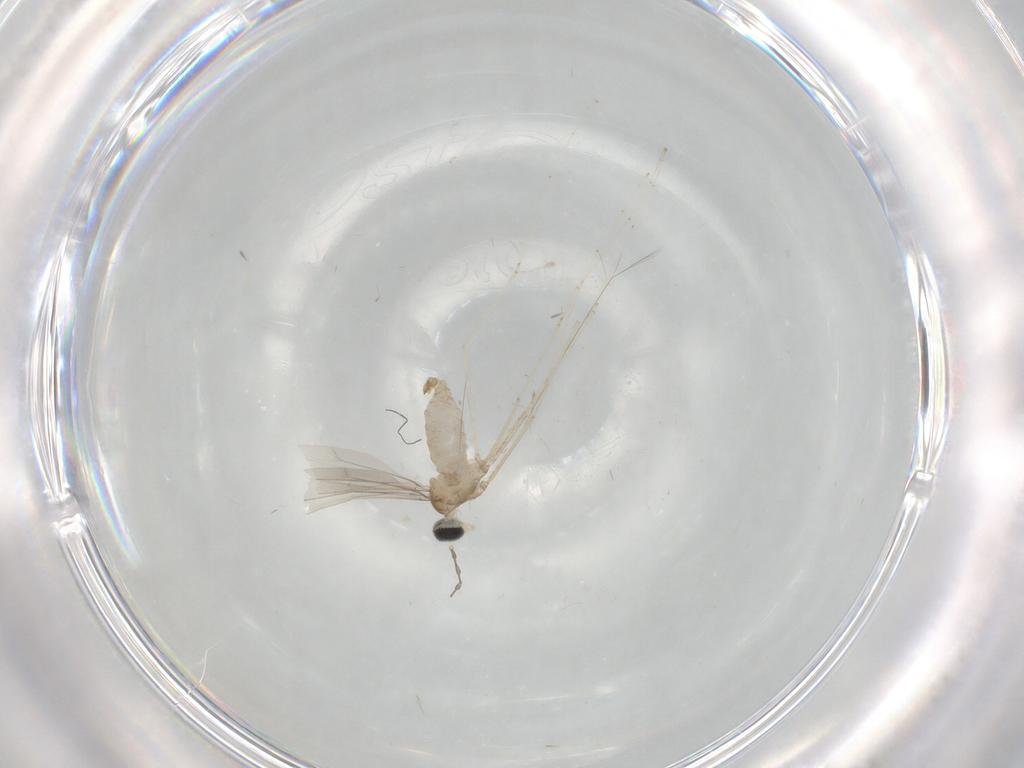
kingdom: Animalia
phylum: Arthropoda
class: Insecta
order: Diptera
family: Cecidomyiidae
